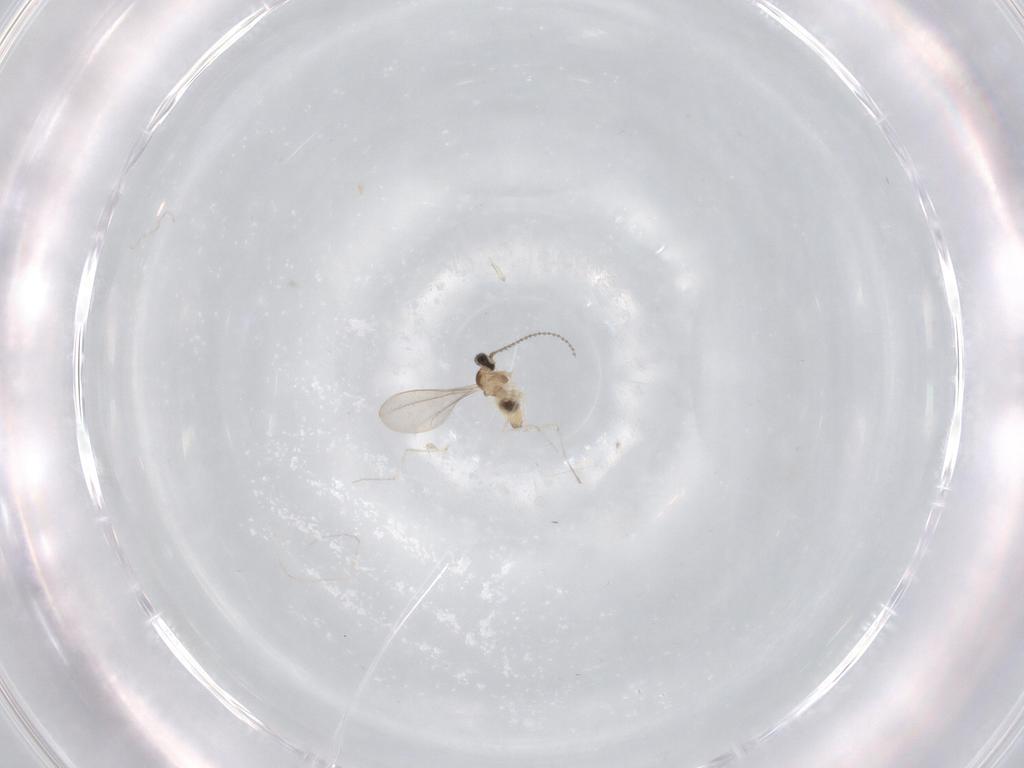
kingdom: Animalia
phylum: Arthropoda
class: Insecta
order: Diptera
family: Cecidomyiidae
